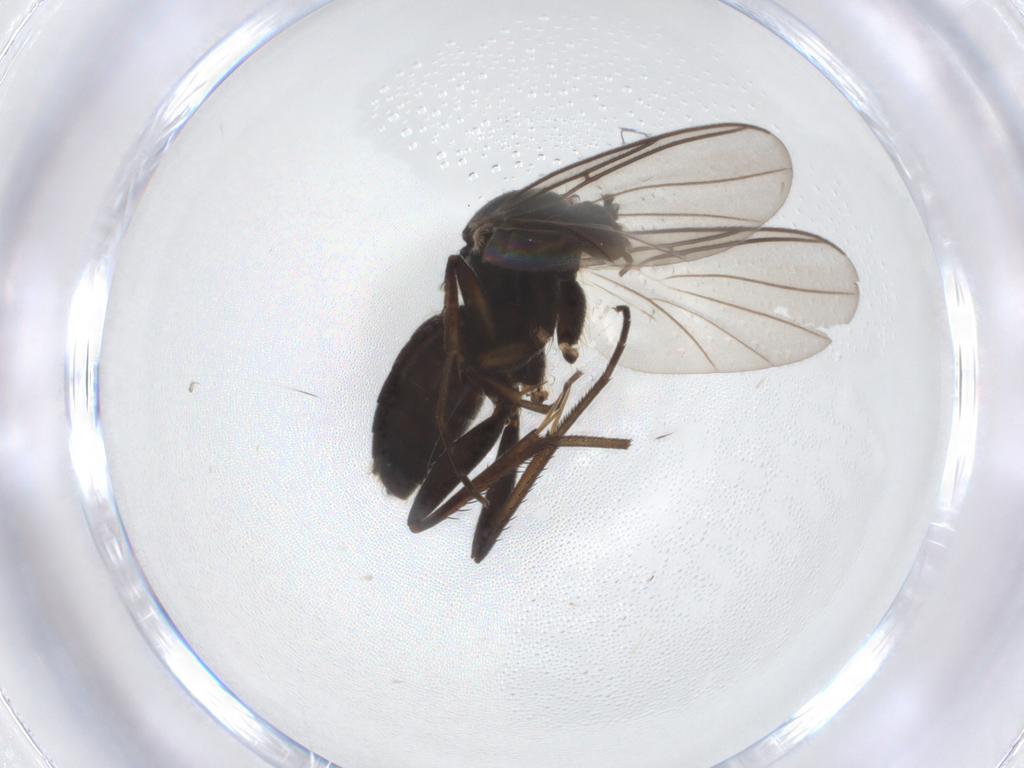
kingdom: Animalia
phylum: Arthropoda
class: Insecta
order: Diptera
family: Mycetophilidae
